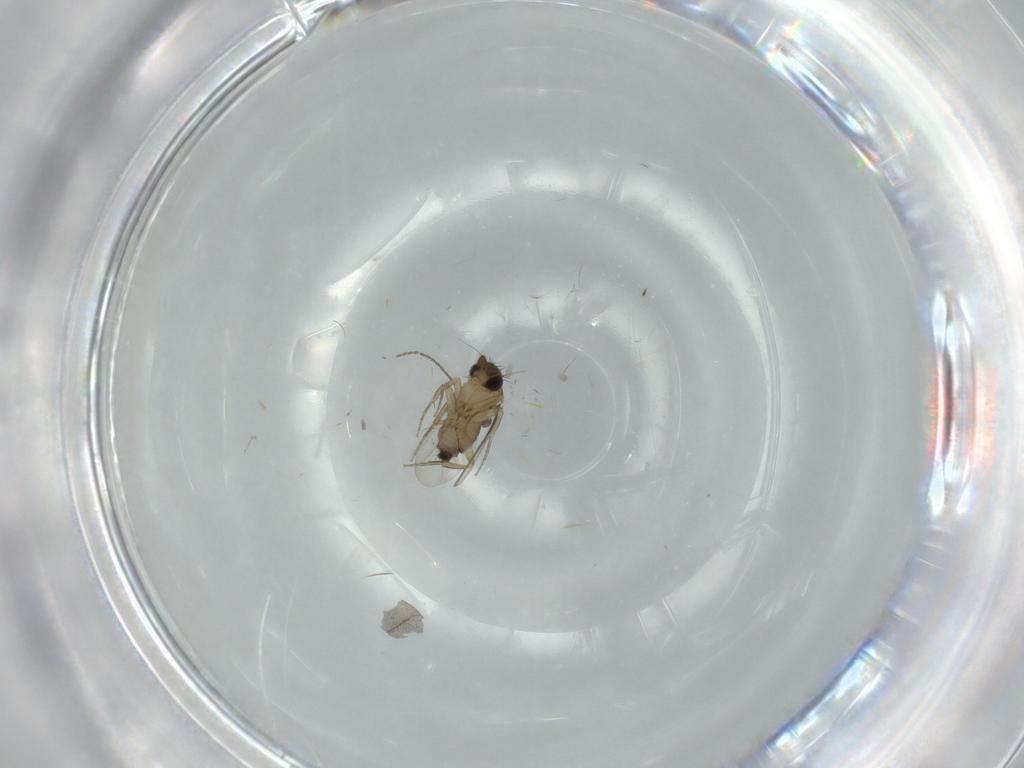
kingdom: Animalia
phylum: Arthropoda
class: Insecta
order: Diptera
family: Phoridae
